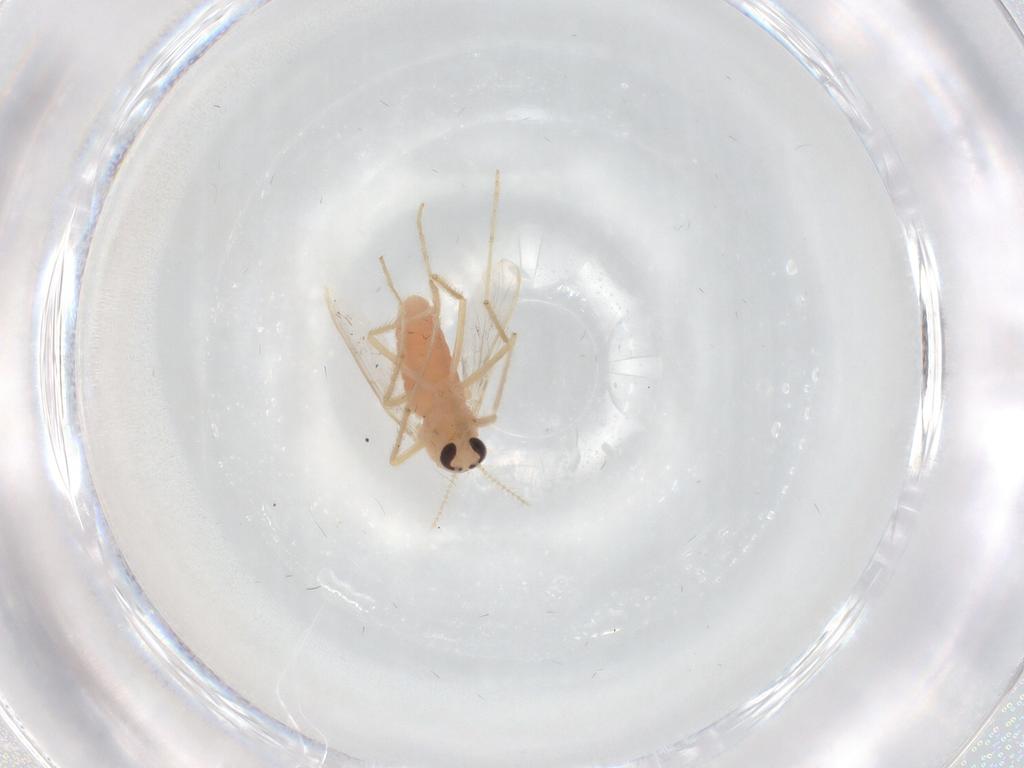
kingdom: Animalia
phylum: Arthropoda
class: Insecta
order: Diptera
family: Chironomidae
